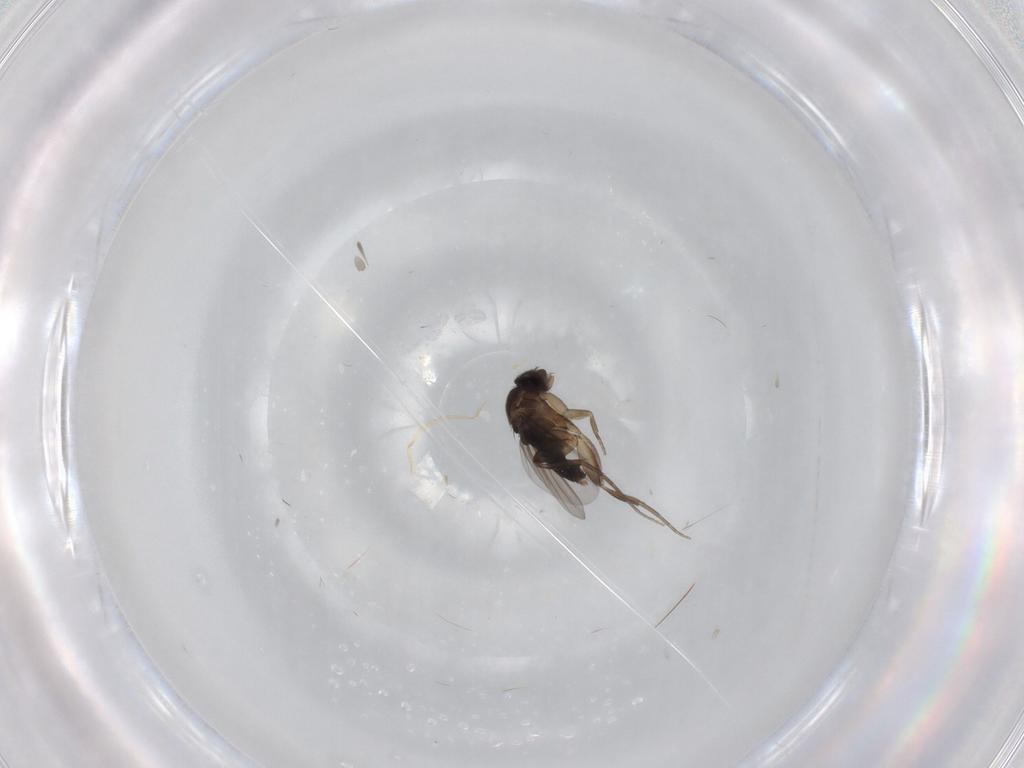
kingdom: Animalia
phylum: Arthropoda
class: Insecta
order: Diptera
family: Phoridae
